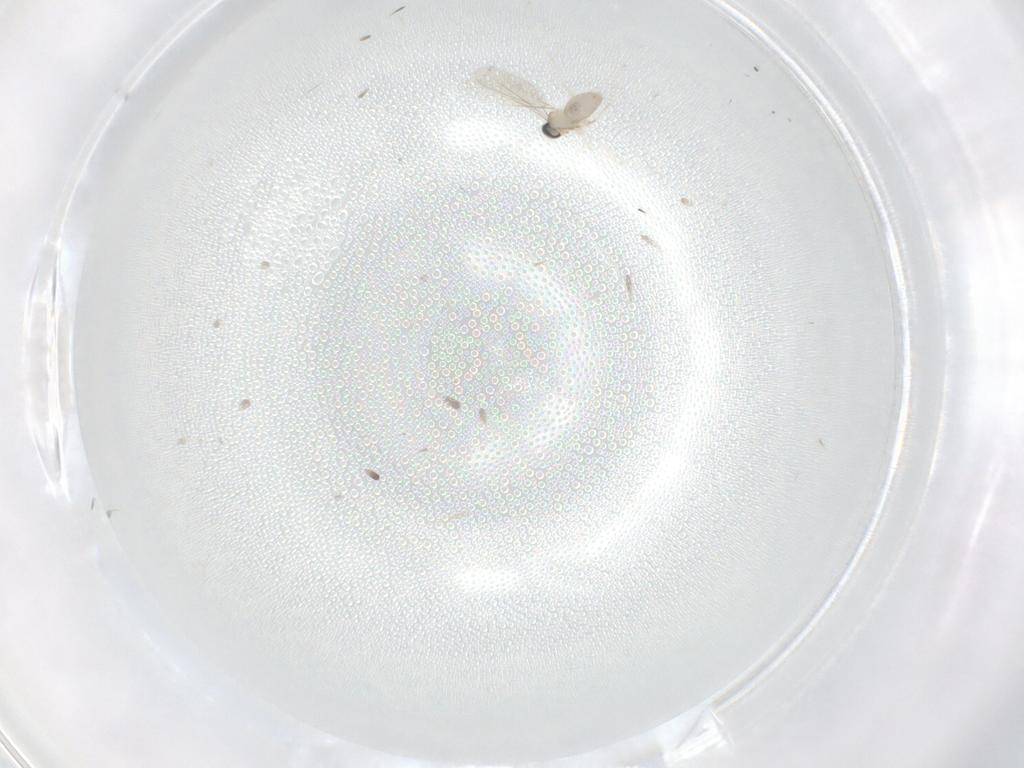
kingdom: Animalia
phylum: Arthropoda
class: Insecta
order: Diptera
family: Cecidomyiidae
